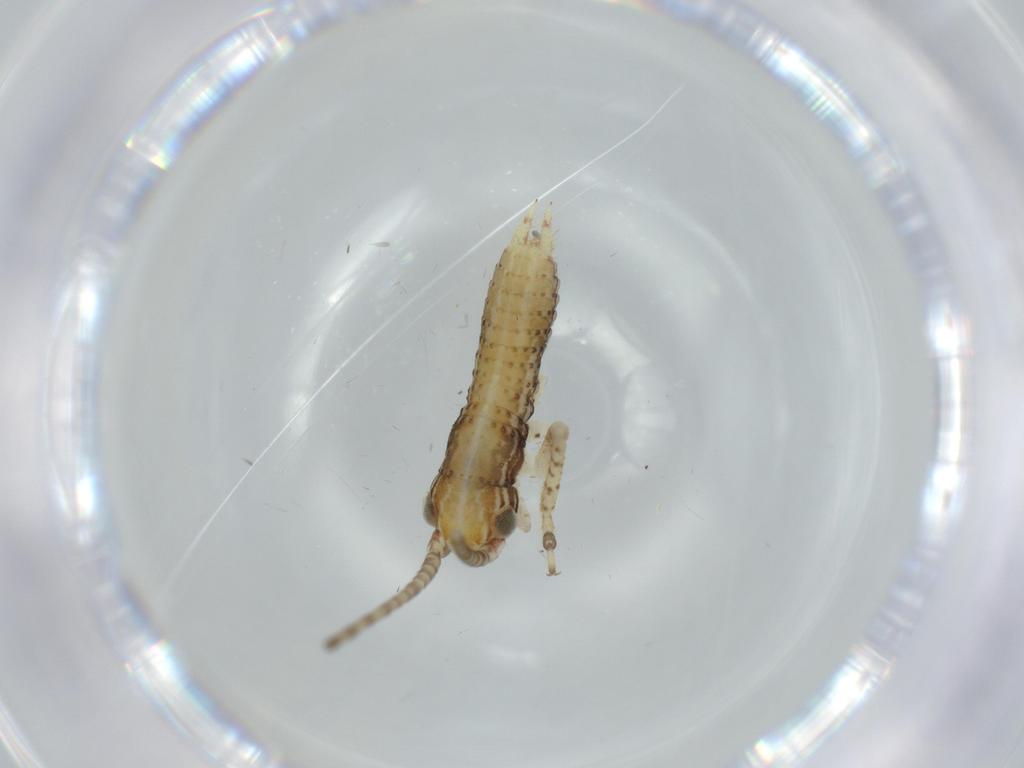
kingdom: Animalia
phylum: Arthropoda
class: Insecta
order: Orthoptera
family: Gryllidae
